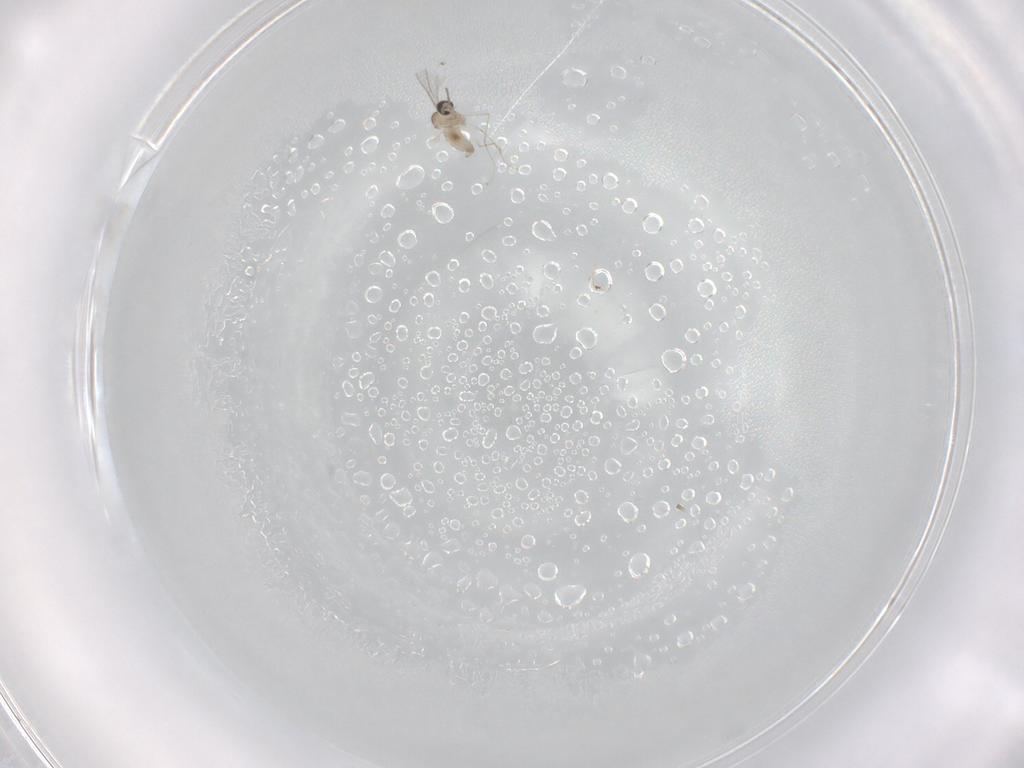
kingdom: Animalia
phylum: Arthropoda
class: Insecta
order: Diptera
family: Cecidomyiidae
